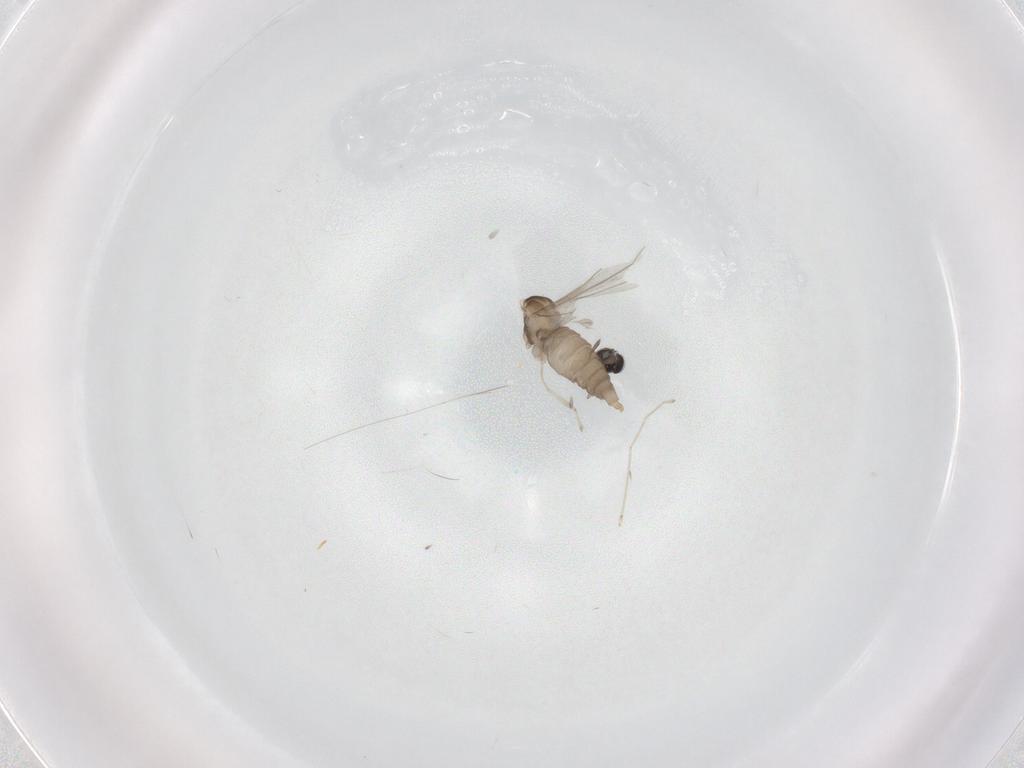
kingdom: Animalia
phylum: Arthropoda
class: Insecta
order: Diptera
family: Cecidomyiidae
